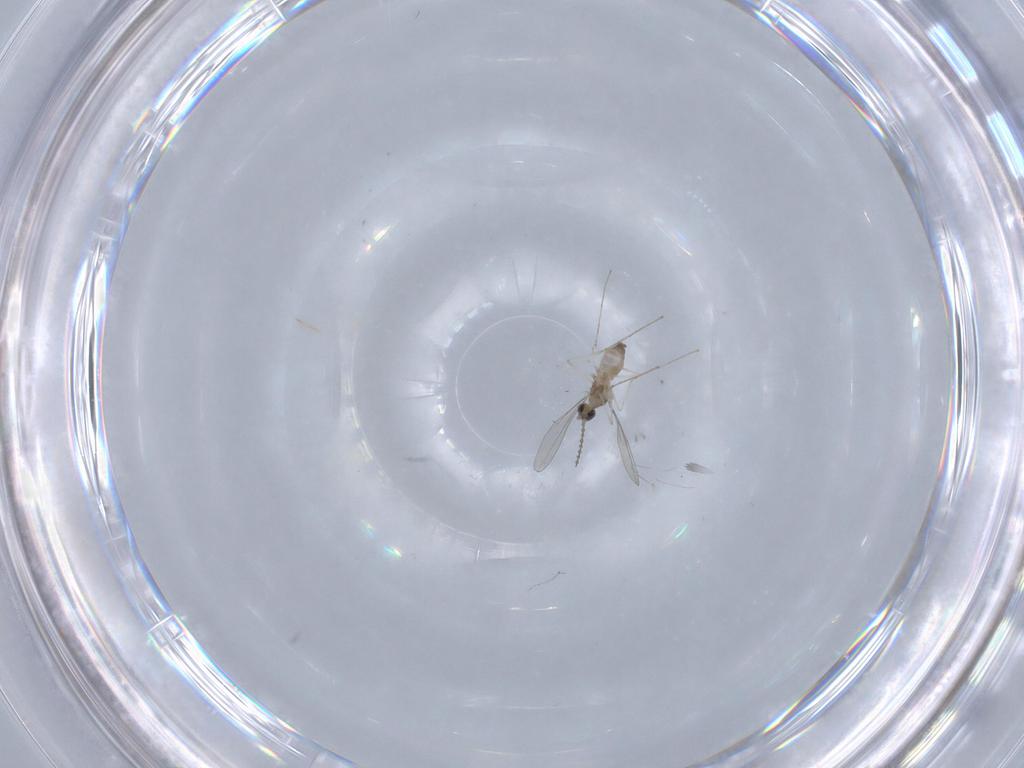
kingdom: Animalia
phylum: Arthropoda
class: Insecta
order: Diptera
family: Cecidomyiidae
